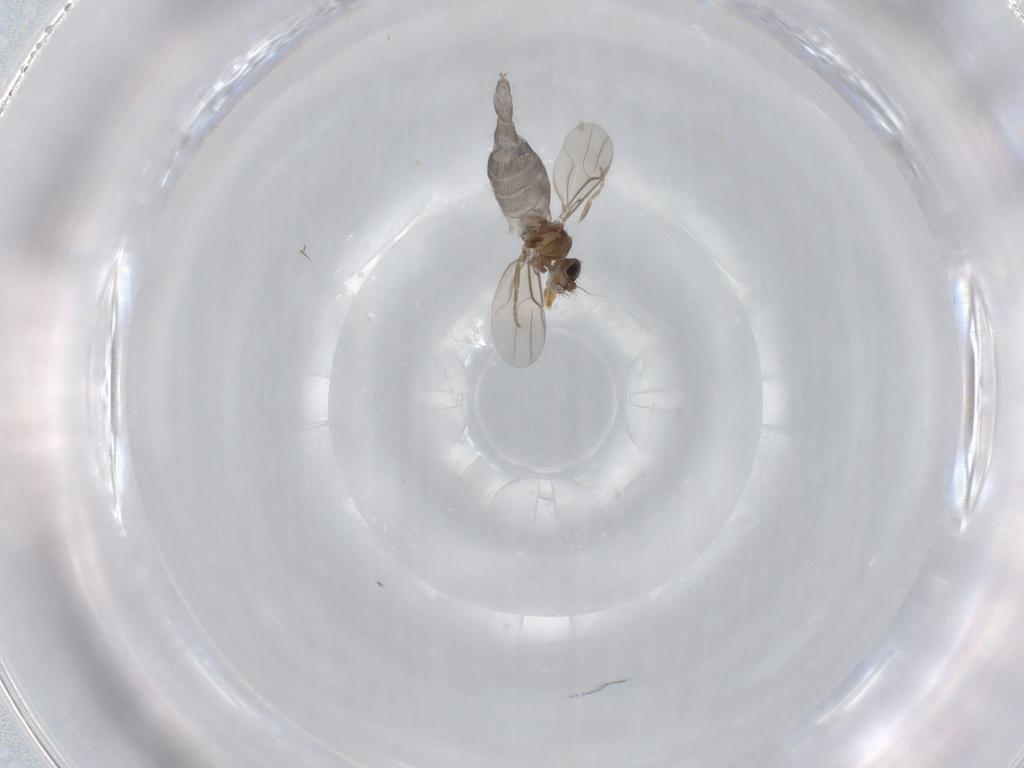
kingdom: Animalia
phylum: Arthropoda
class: Insecta
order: Diptera
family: Phoridae
